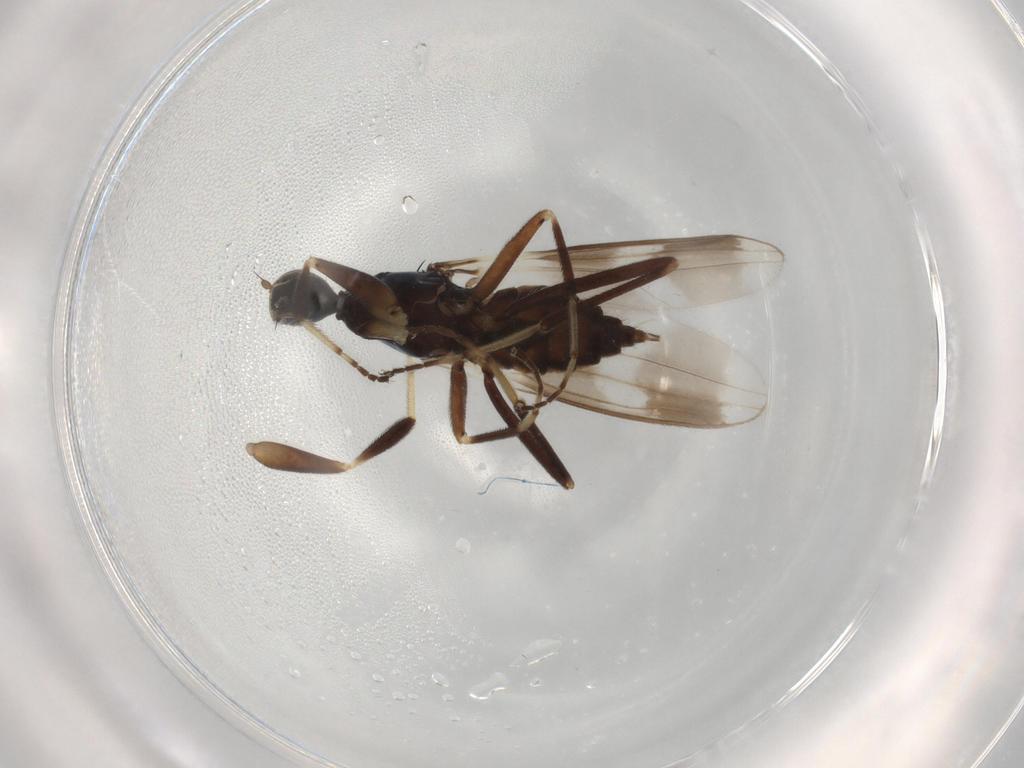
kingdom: Animalia
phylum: Arthropoda
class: Insecta
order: Diptera
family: Hybotidae
